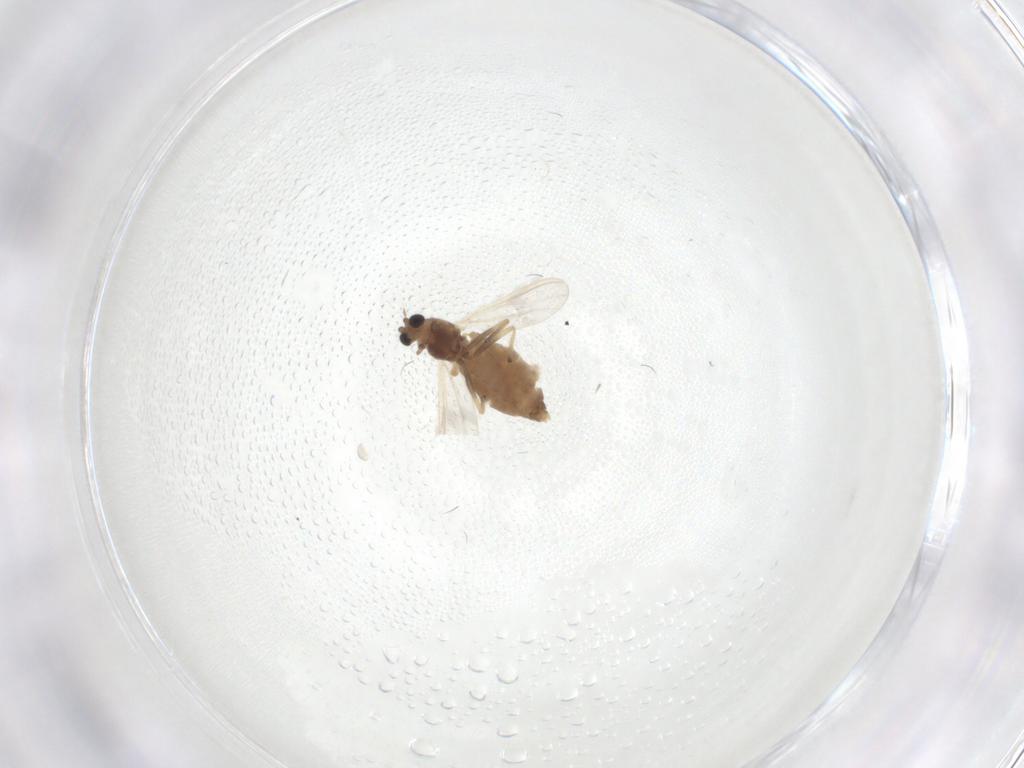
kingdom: Animalia
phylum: Arthropoda
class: Insecta
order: Diptera
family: Chironomidae
